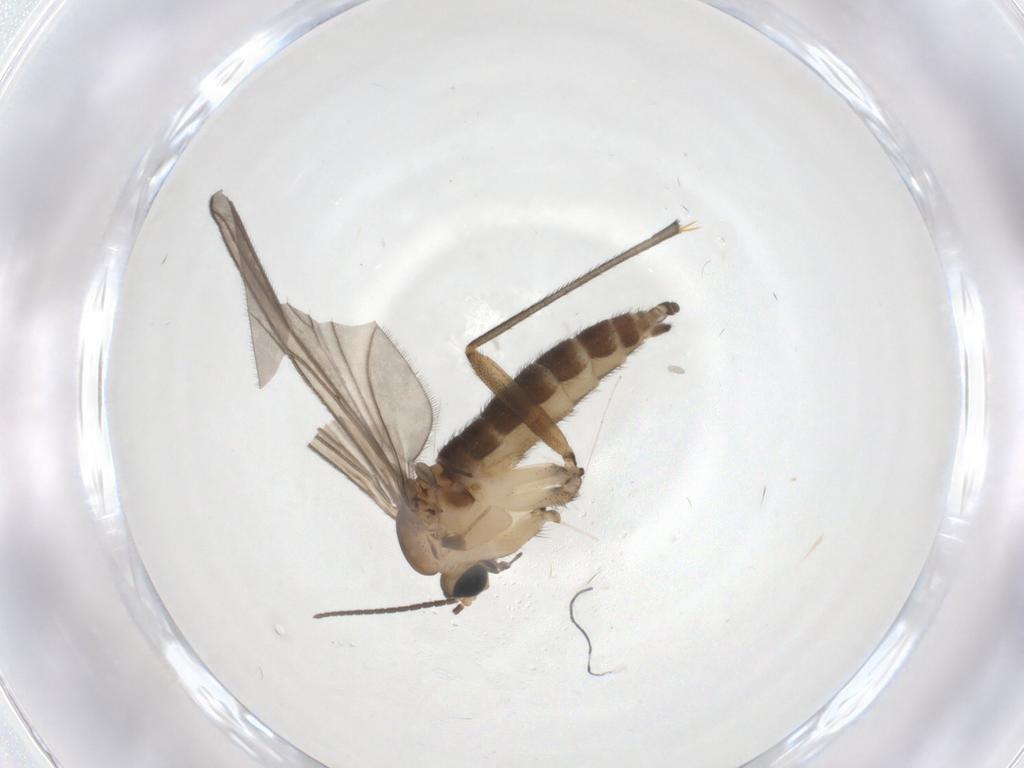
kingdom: Animalia
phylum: Arthropoda
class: Insecta
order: Diptera
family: Sciaridae
